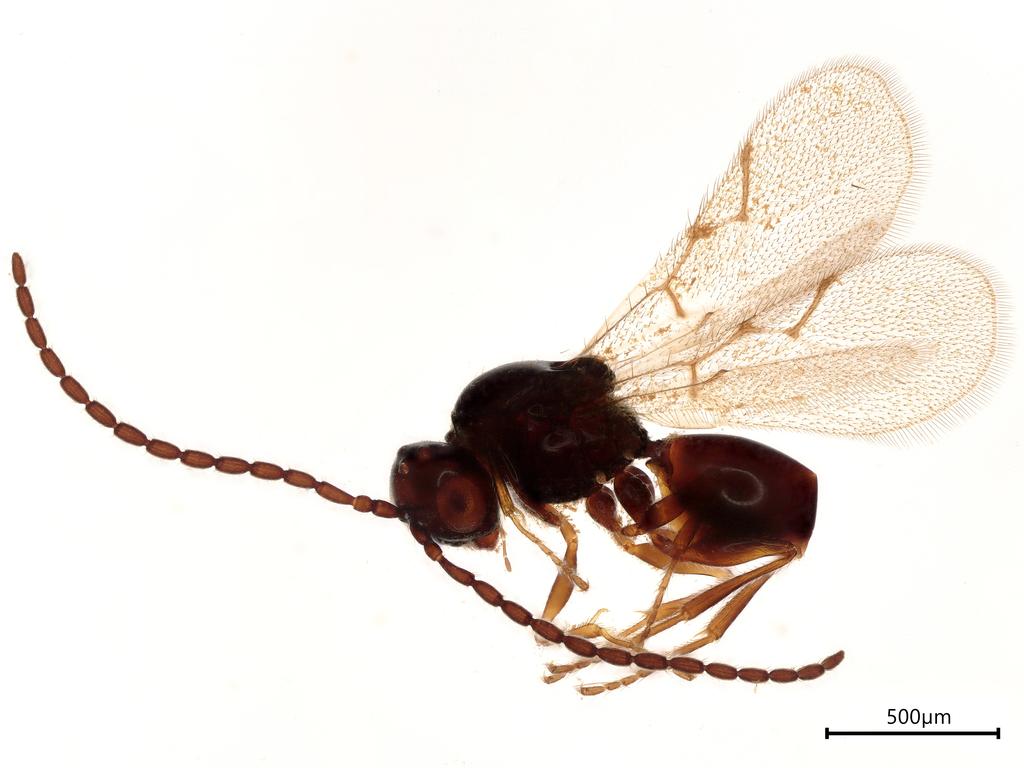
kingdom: Animalia
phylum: Arthropoda
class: Insecta
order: Hymenoptera
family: Figitidae
